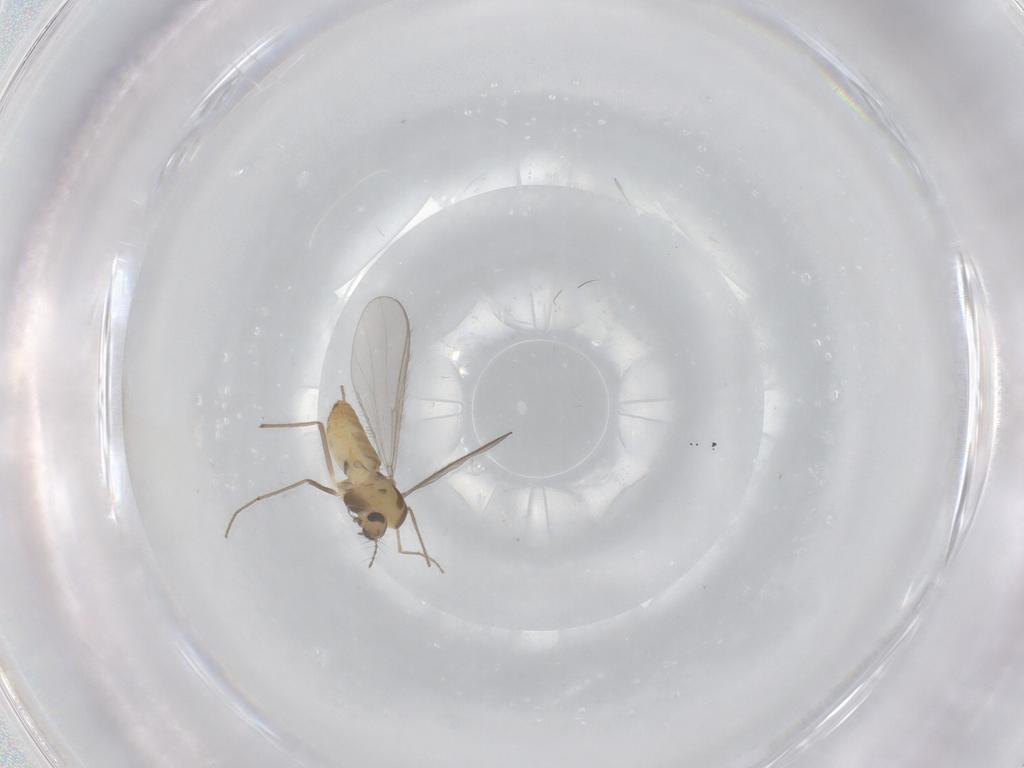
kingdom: Animalia
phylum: Arthropoda
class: Insecta
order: Diptera
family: Chironomidae
